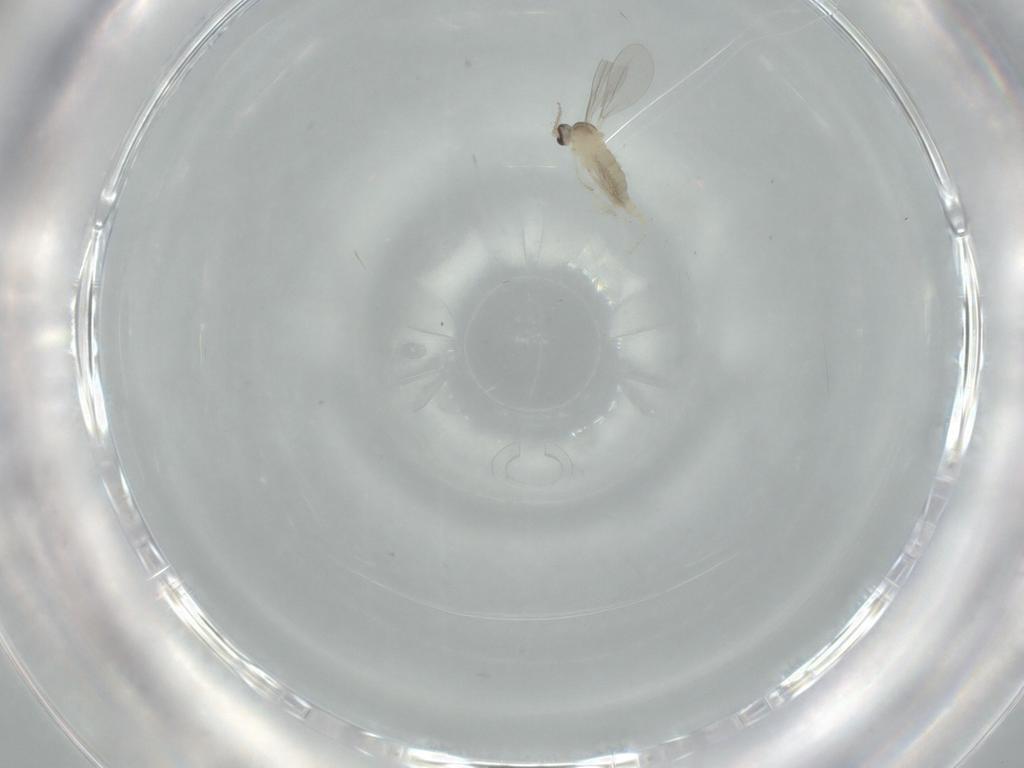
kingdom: Animalia
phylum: Arthropoda
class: Insecta
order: Diptera
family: Cecidomyiidae
